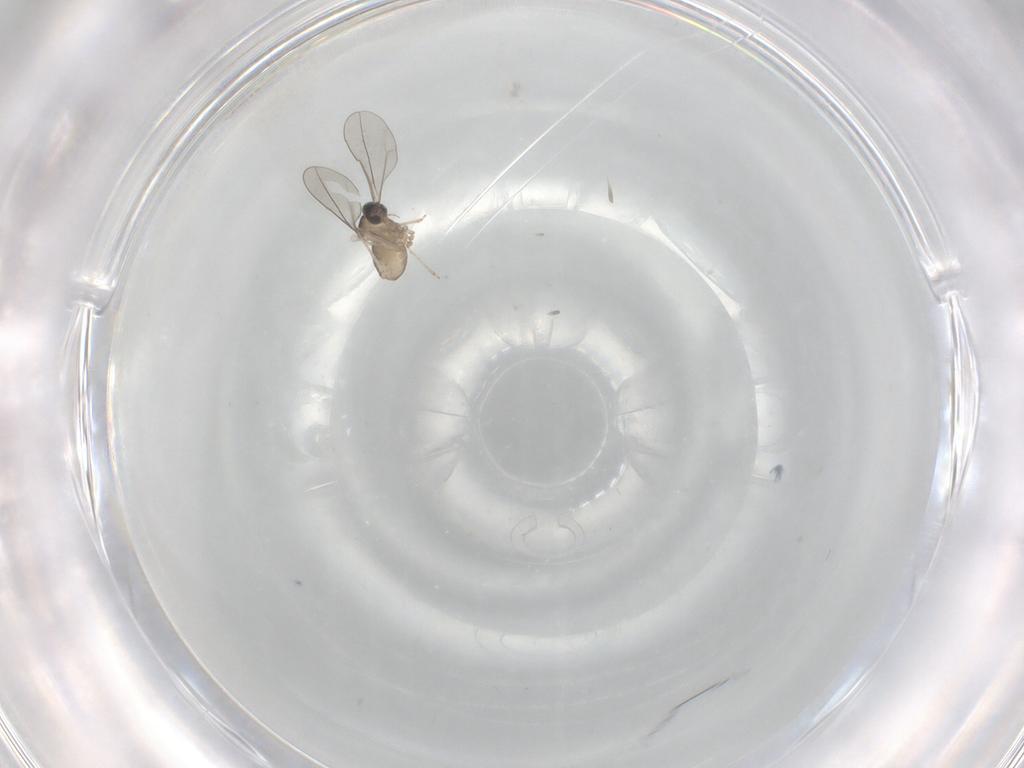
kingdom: Animalia
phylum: Arthropoda
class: Insecta
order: Diptera
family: Cecidomyiidae
